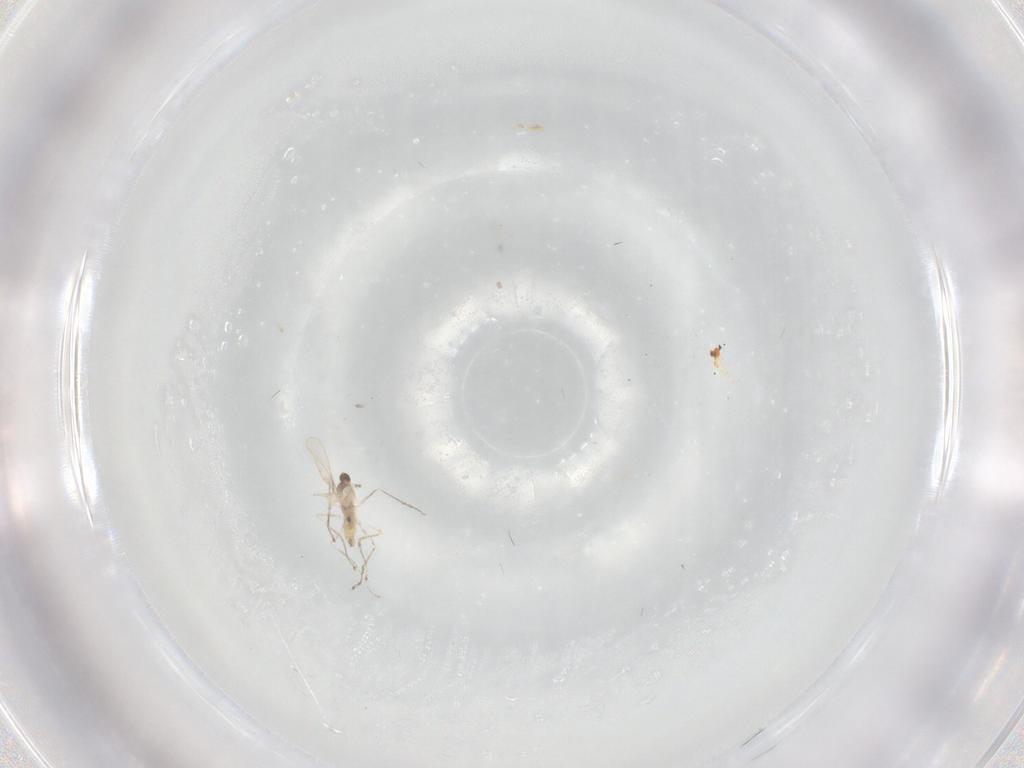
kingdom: Animalia
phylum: Arthropoda
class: Insecta
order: Diptera
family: Cecidomyiidae
